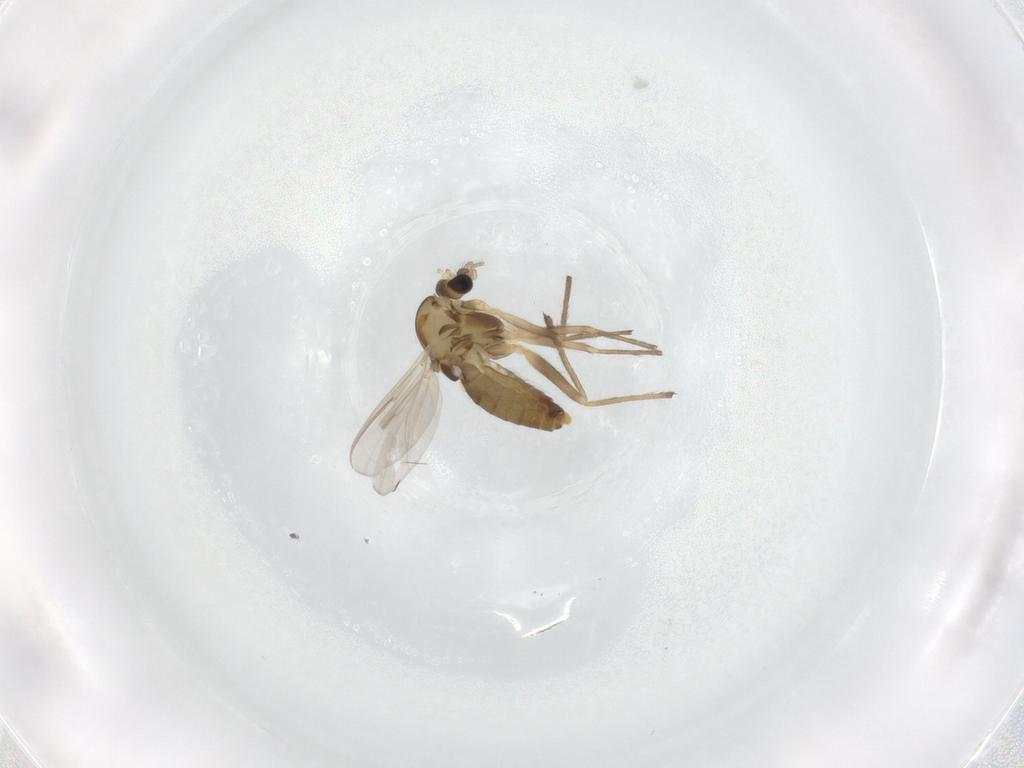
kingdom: Animalia
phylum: Arthropoda
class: Insecta
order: Diptera
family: Chironomidae
